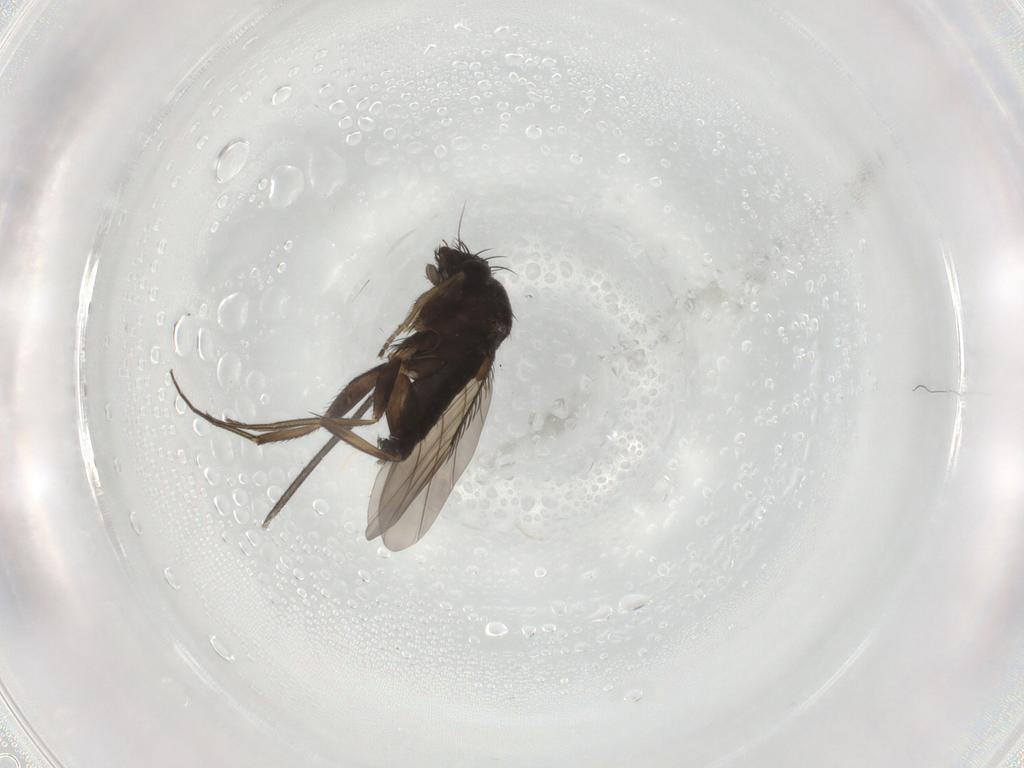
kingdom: Animalia
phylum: Arthropoda
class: Insecta
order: Diptera
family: Phoridae
